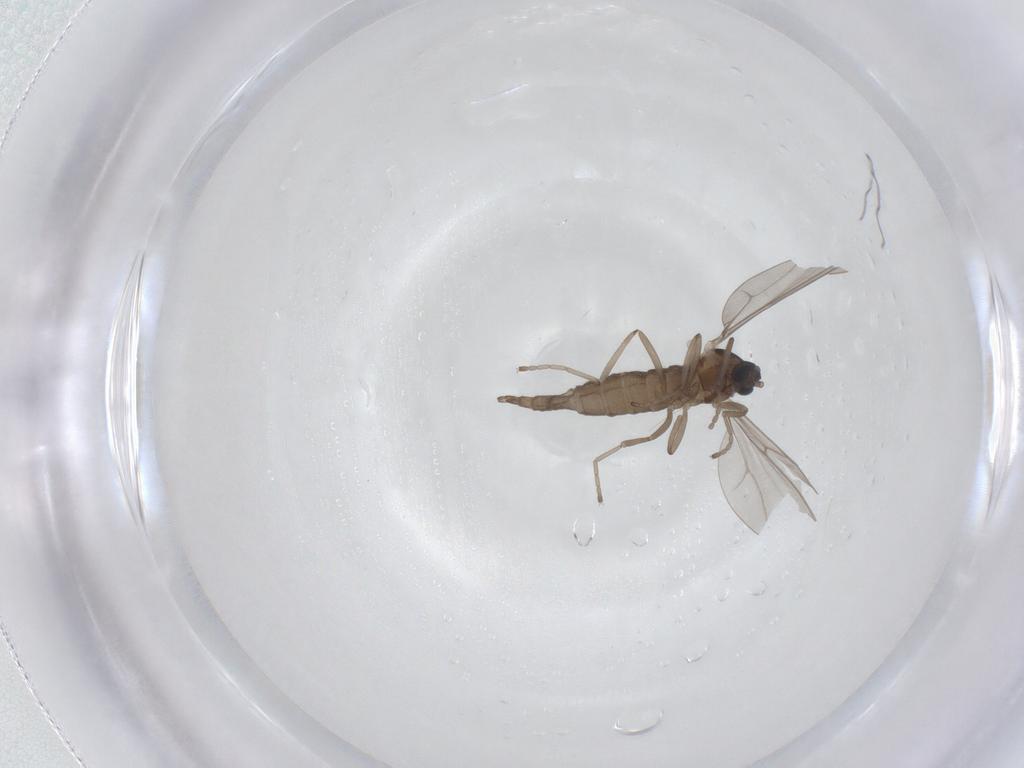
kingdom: Animalia
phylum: Arthropoda
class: Insecta
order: Diptera
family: Cecidomyiidae
